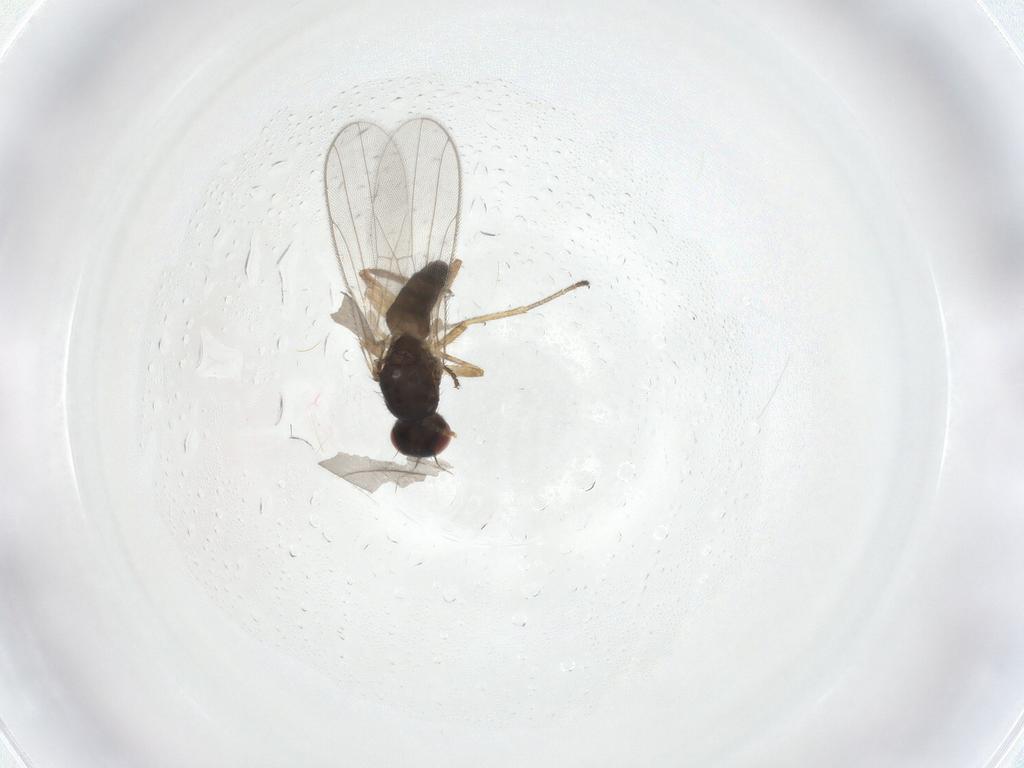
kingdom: Animalia
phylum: Arthropoda
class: Insecta
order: Diptera
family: Chloropidae
